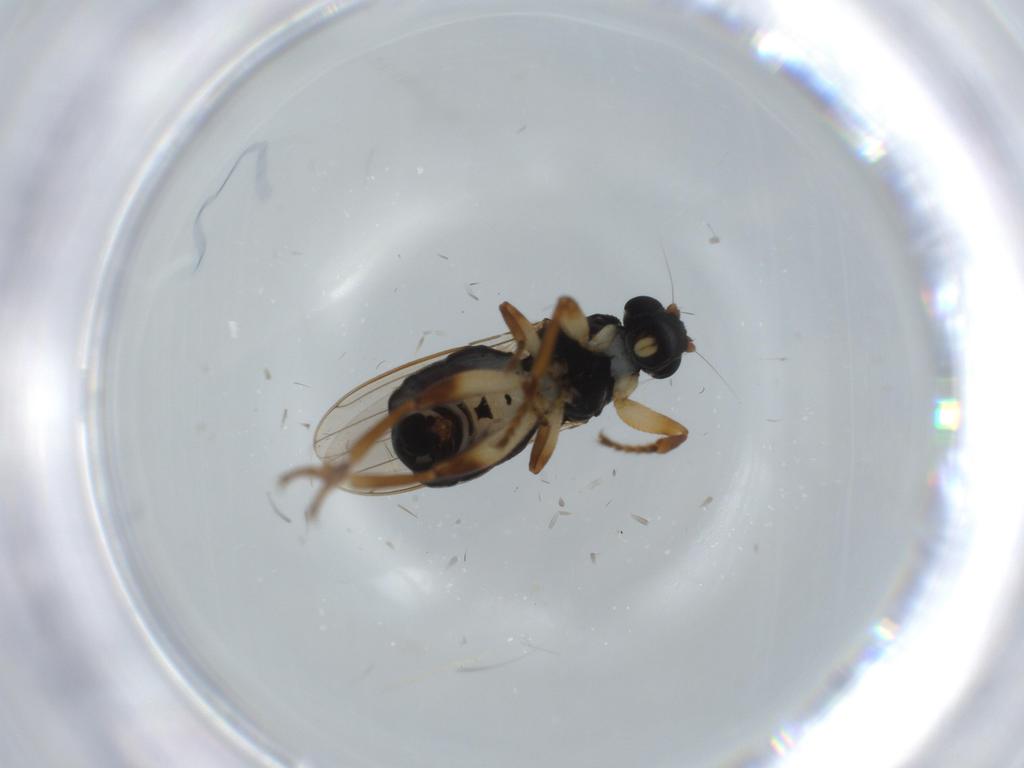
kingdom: Animalia
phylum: Arthropoda
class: Insecta
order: Diptera
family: Sphaeroceridae
